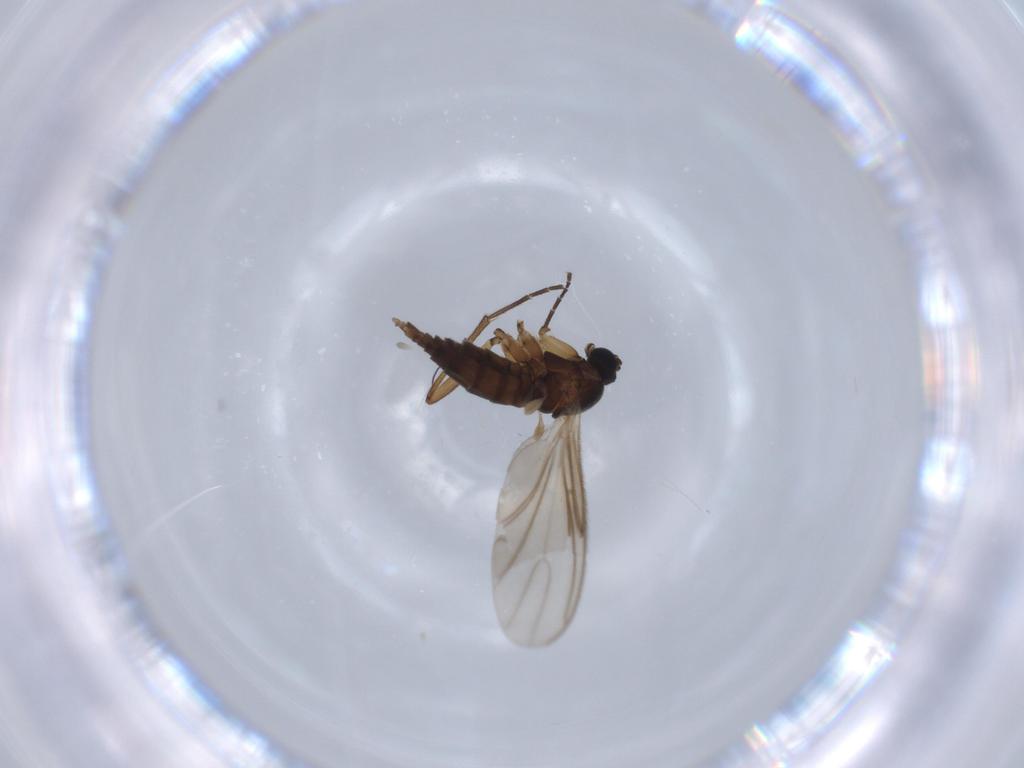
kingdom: Animalia
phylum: Arthropoda
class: Insecta
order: Diptera
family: Sciaridae
